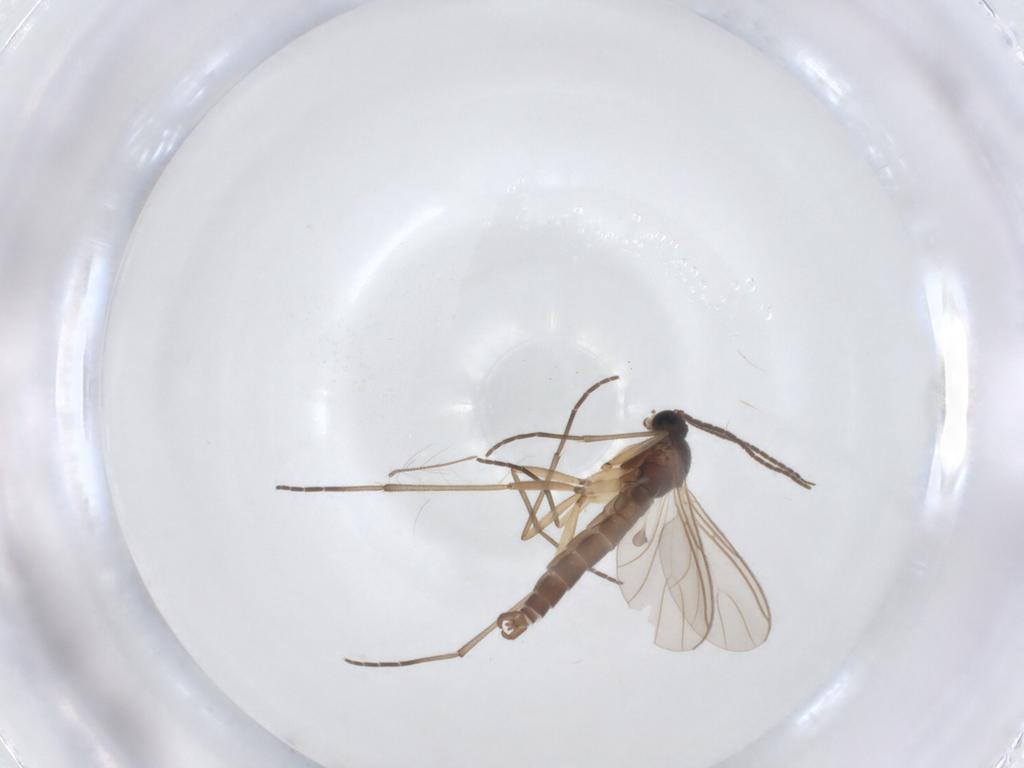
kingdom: Animalia
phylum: Arthropoda
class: Insecta
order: Diptera
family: Sciaridae
